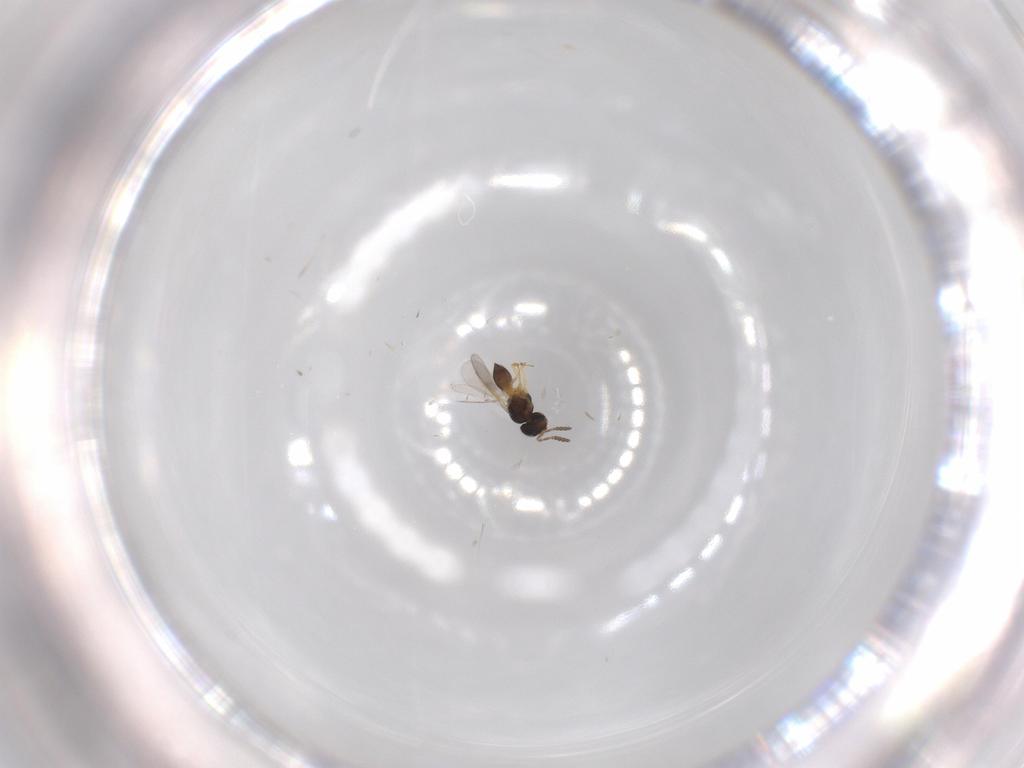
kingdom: Animalia
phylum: Arthropoda
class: Insecta
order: Hymenoptera
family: Scelionidae
